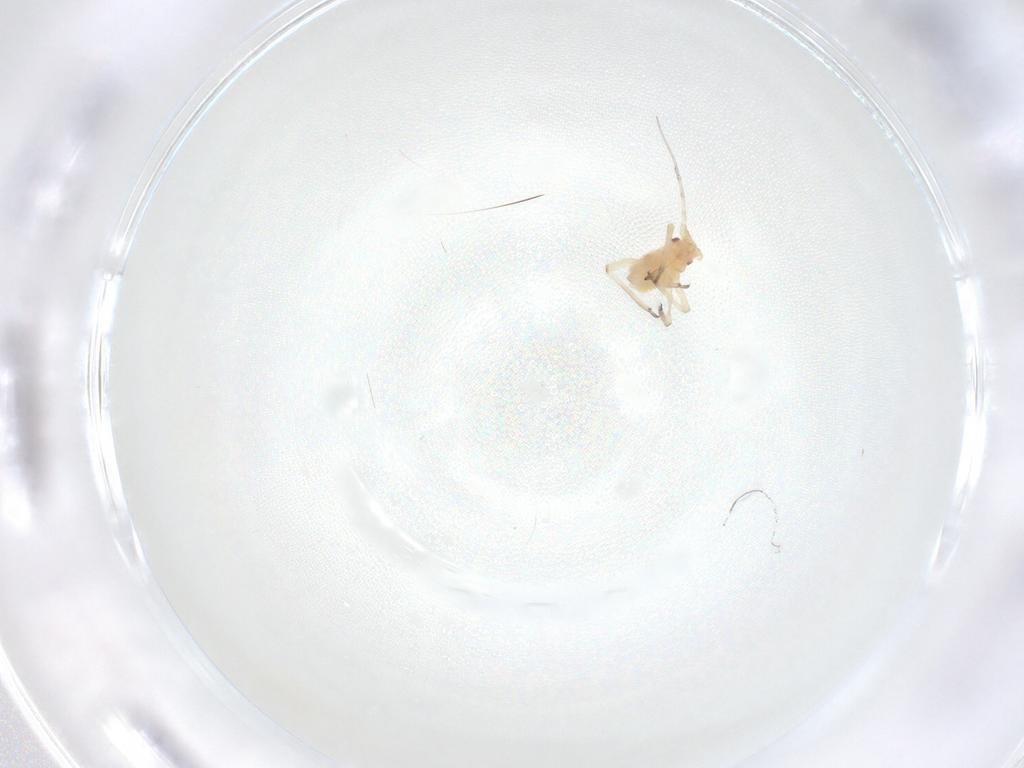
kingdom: Animalia
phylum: Arthropoda
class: Insecta
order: Hemiptera
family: Aphididae
